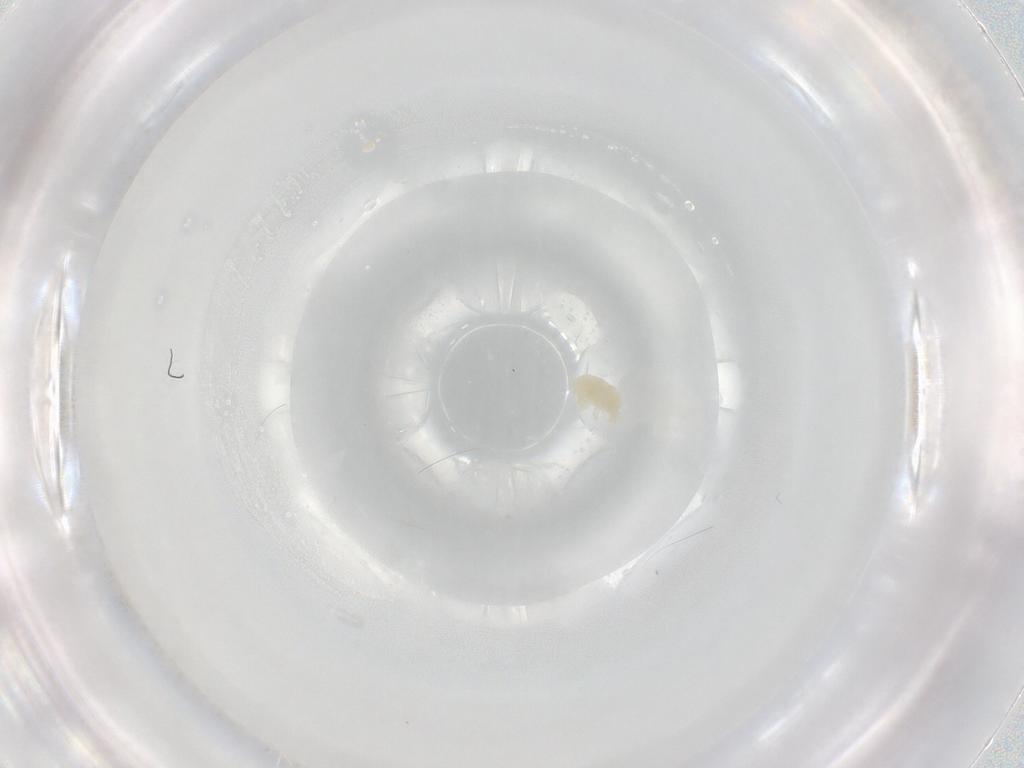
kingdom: Animalia
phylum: Arthropoda
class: Arachnida
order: Trombidiformes
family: Eupodidae
